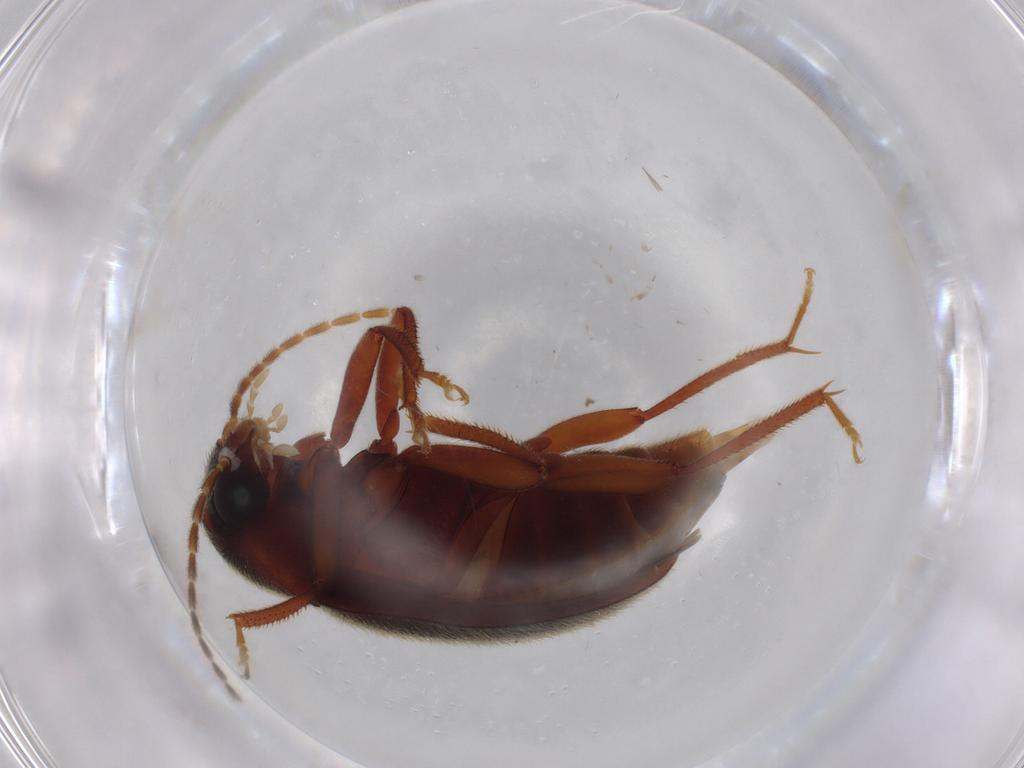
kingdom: Animalia
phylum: Arthropoda
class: Insecta
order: Coleoptera
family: Ptilodactylidae
